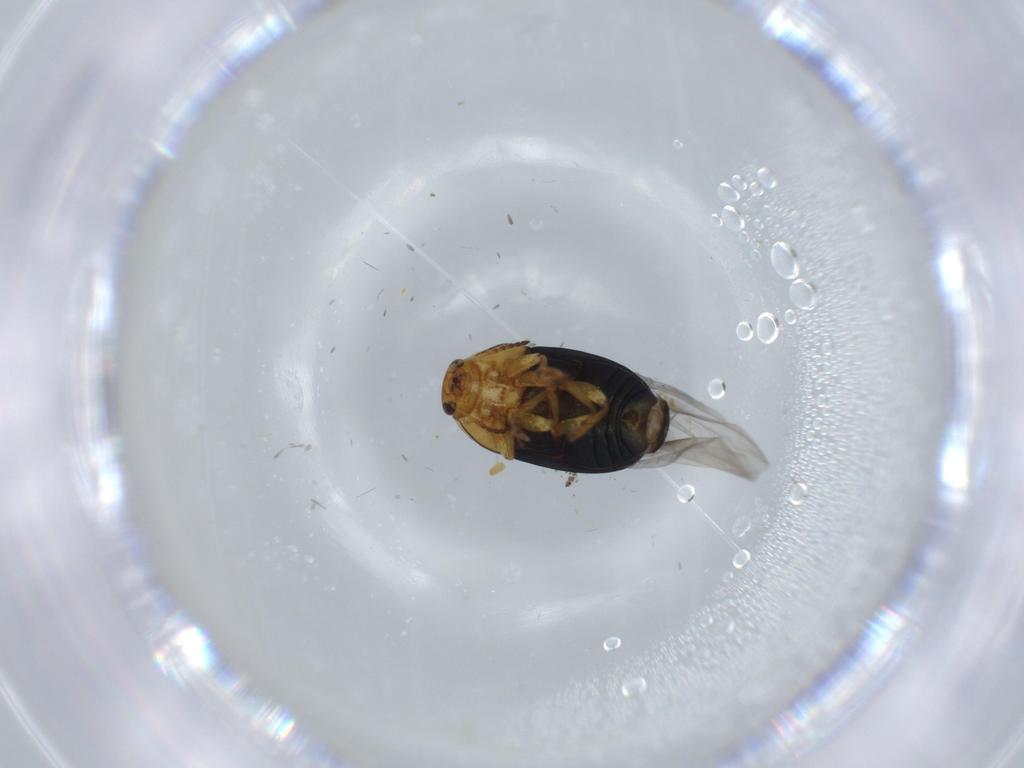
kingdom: Animalia
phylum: Arthropoda
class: Insecta
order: Coleoptera
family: Chrysomelidae
